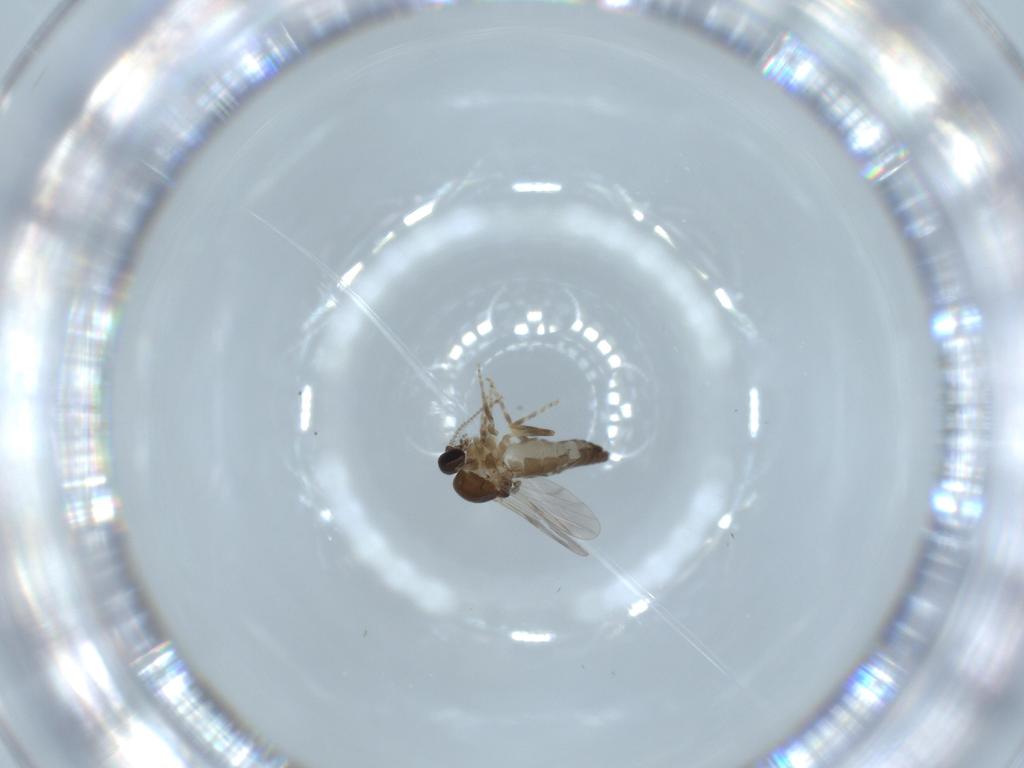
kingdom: Animalia
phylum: Arthropoda
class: Insecta
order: Diptera
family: Ceratopogonidae
